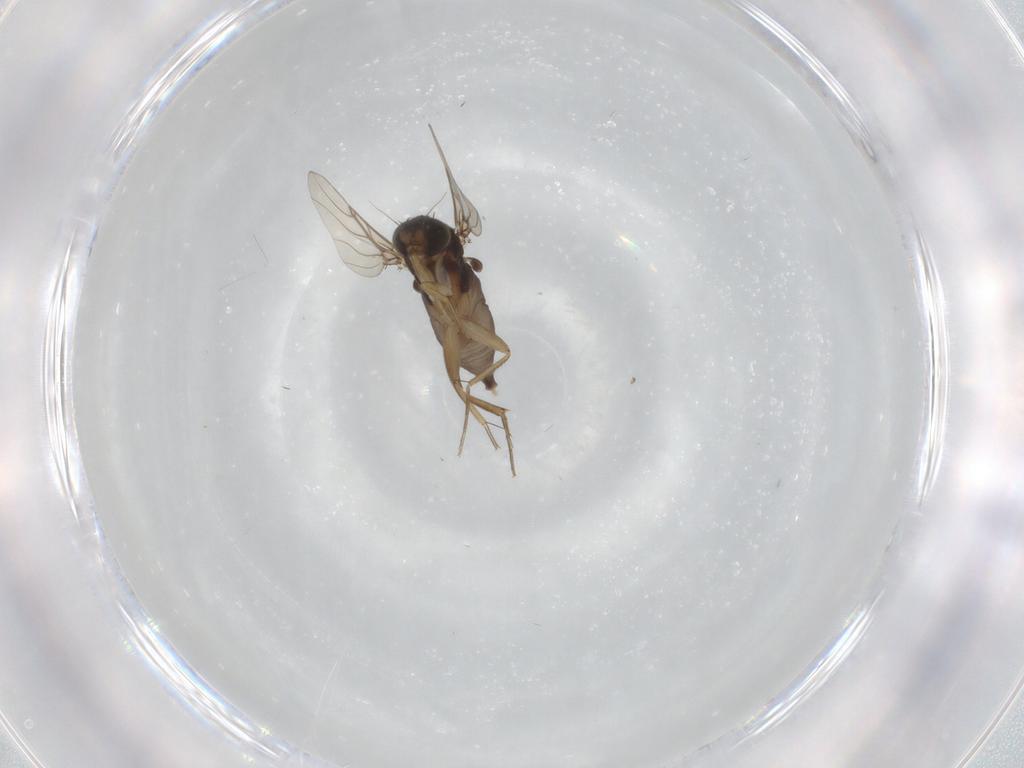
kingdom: Animalia
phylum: Arthropoda
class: Insecta
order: Diptera
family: Phoridae
